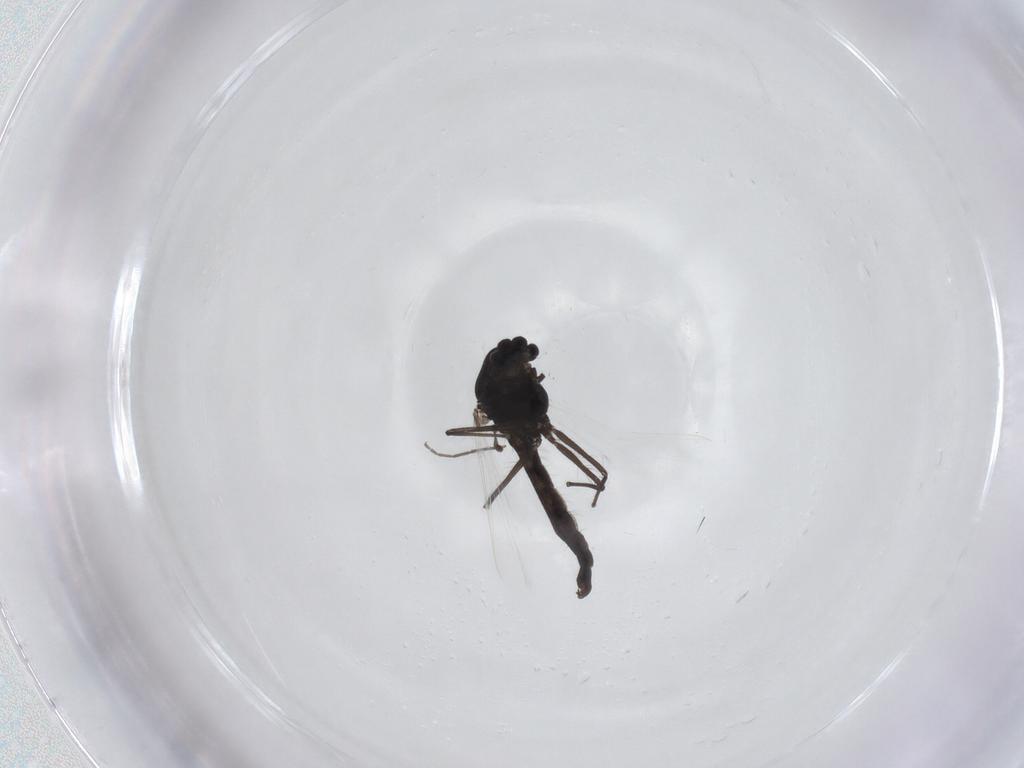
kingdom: Animalia
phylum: Arthropoda
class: Insecta
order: Diptera
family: Chironomidae
